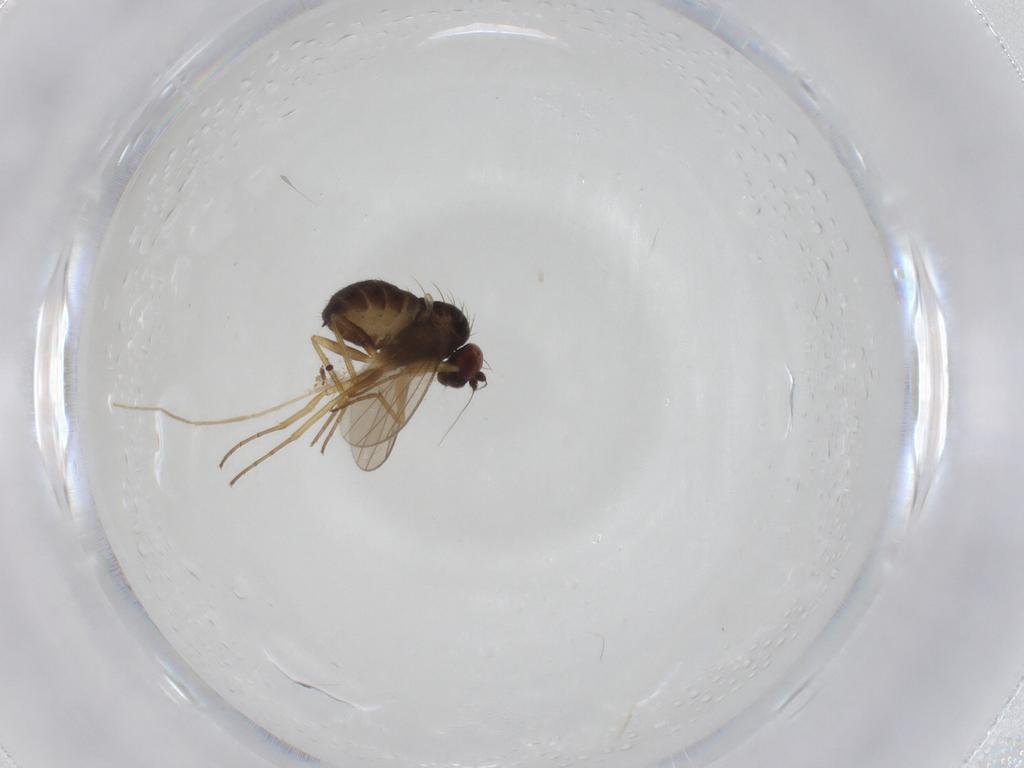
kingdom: Animalia
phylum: Arthropoda
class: Insecta
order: Diptera
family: Dolichopodidae
